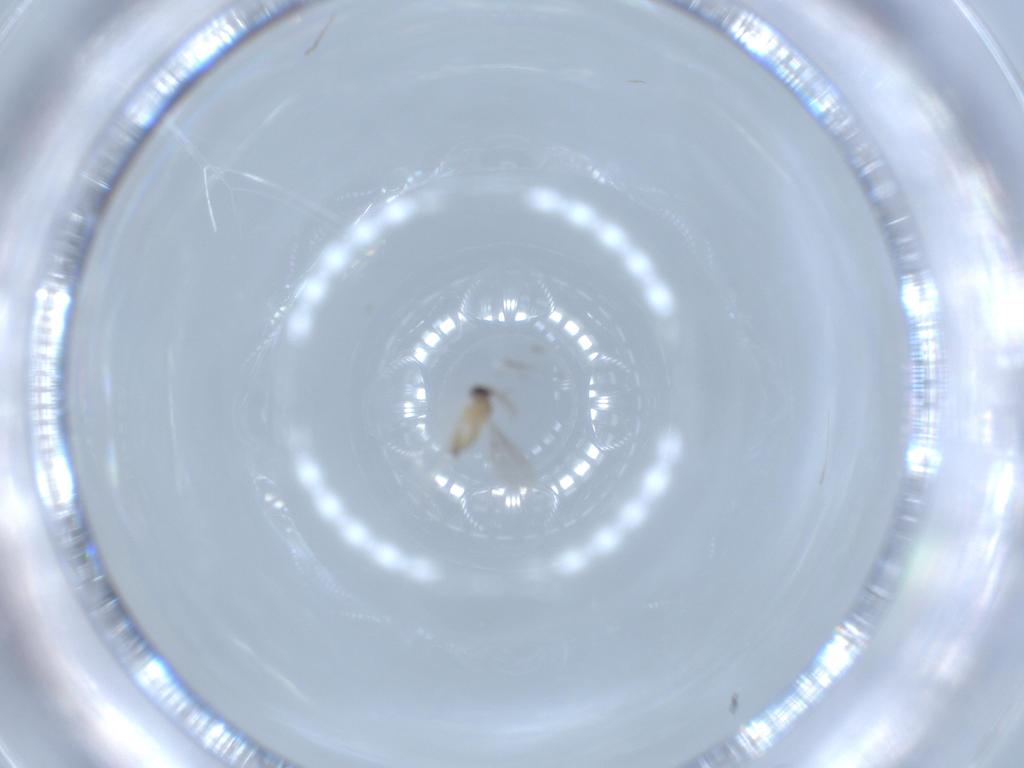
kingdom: Animalia
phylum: Arthropoda
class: Insecta
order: Diptera
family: Cecidomyiidae
